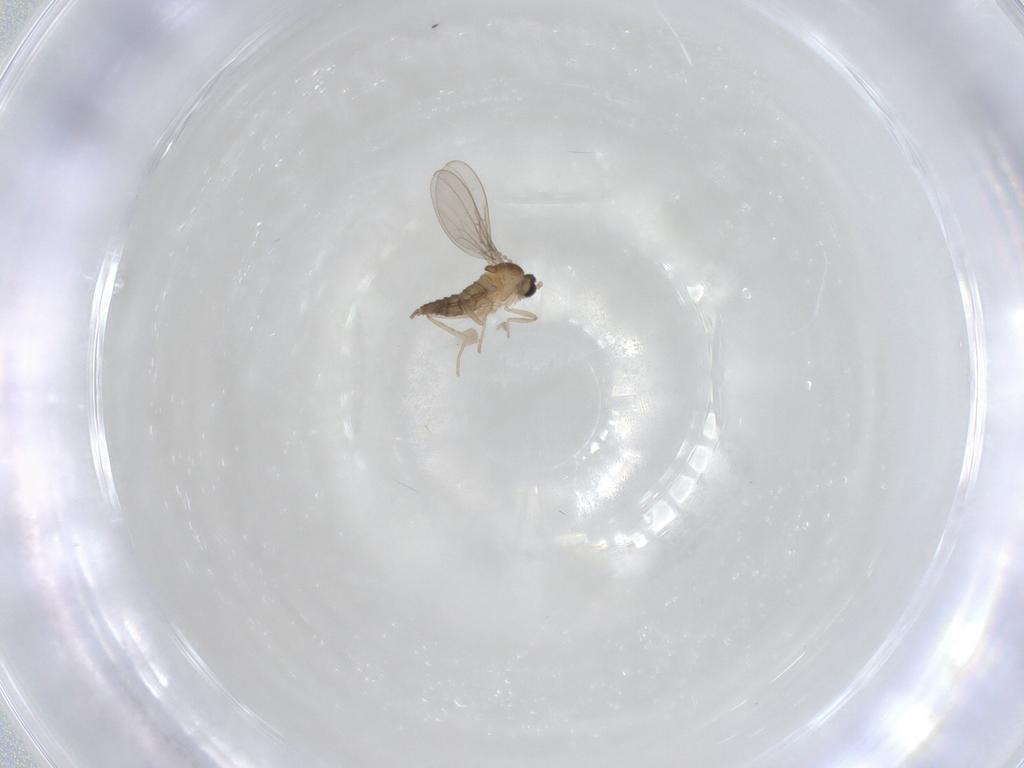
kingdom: Animalia
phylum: Arthropoda
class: Insecta
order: Diptera
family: Cecidomyiidae
